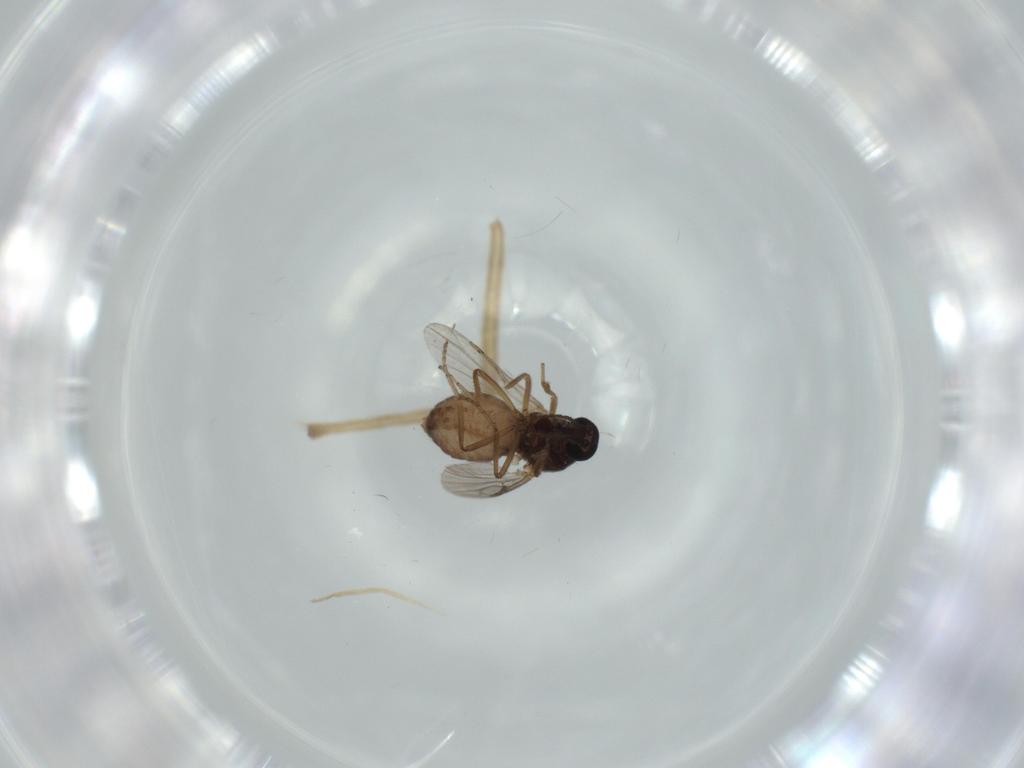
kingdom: Animalia
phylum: Arthropoda
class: Insecta
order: Diptera
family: Ceratopogonidae
